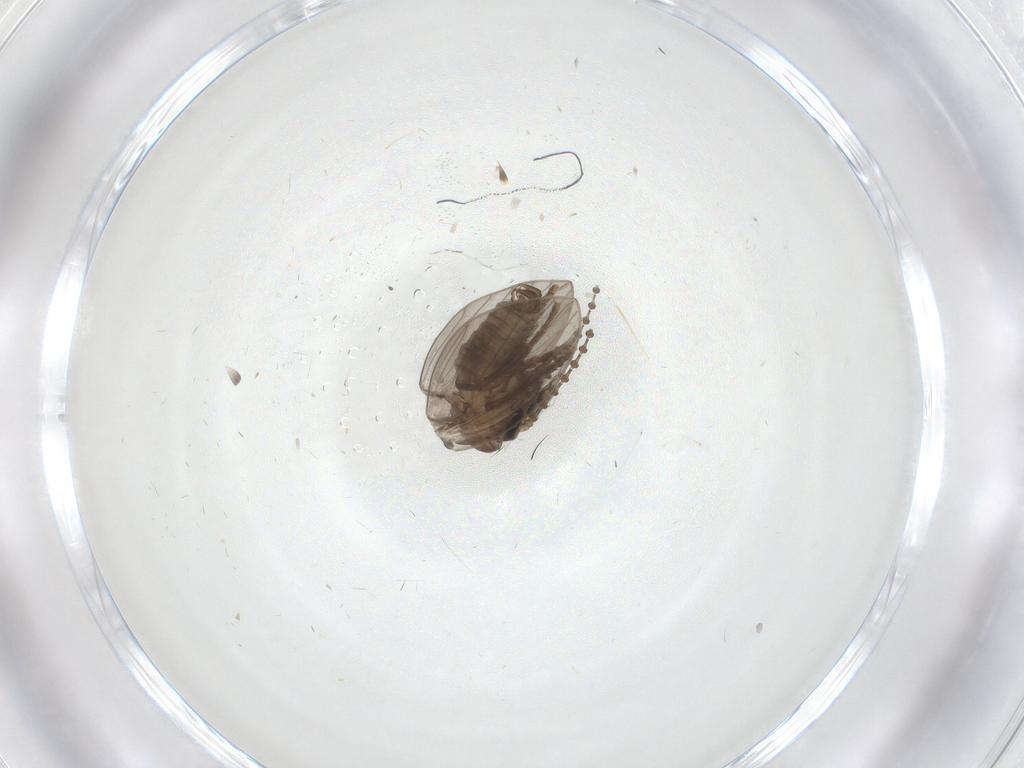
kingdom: Animalia
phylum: Arthropoda
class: Insecta
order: Diptera
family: Psychodidae
